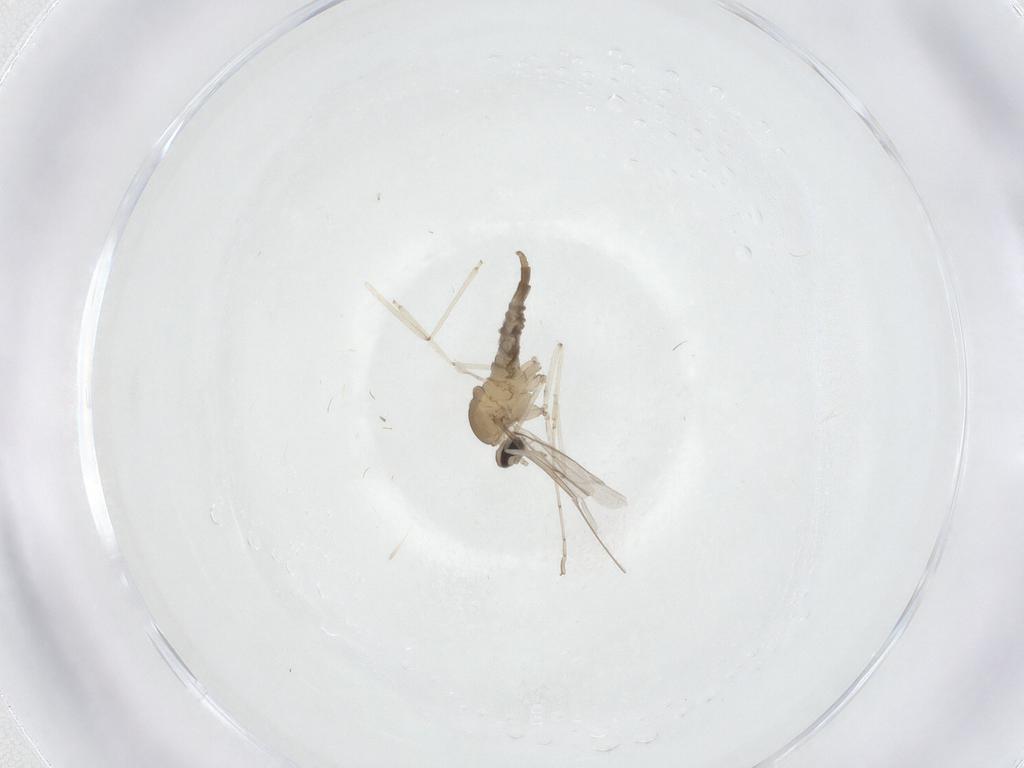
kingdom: Animalia
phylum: Arthropoda
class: Insecta
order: Diptera
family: Cecidomyiidae
